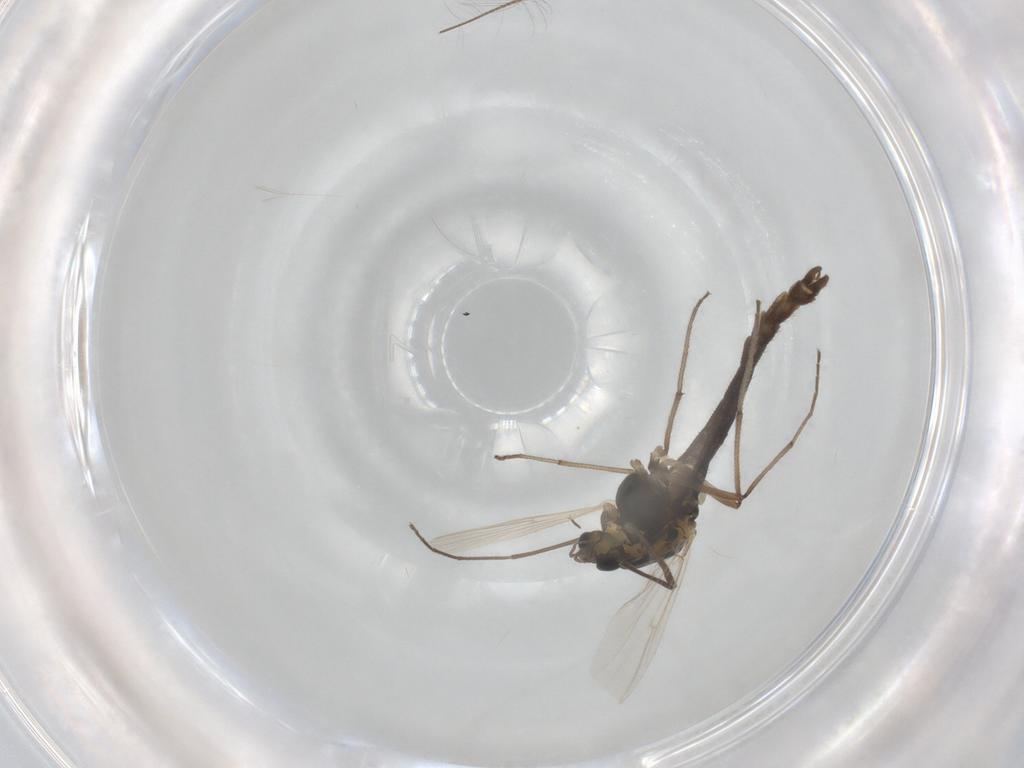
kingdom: Animalia
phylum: Arthropoda
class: Insecta
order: Diptera
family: Chironomidae
